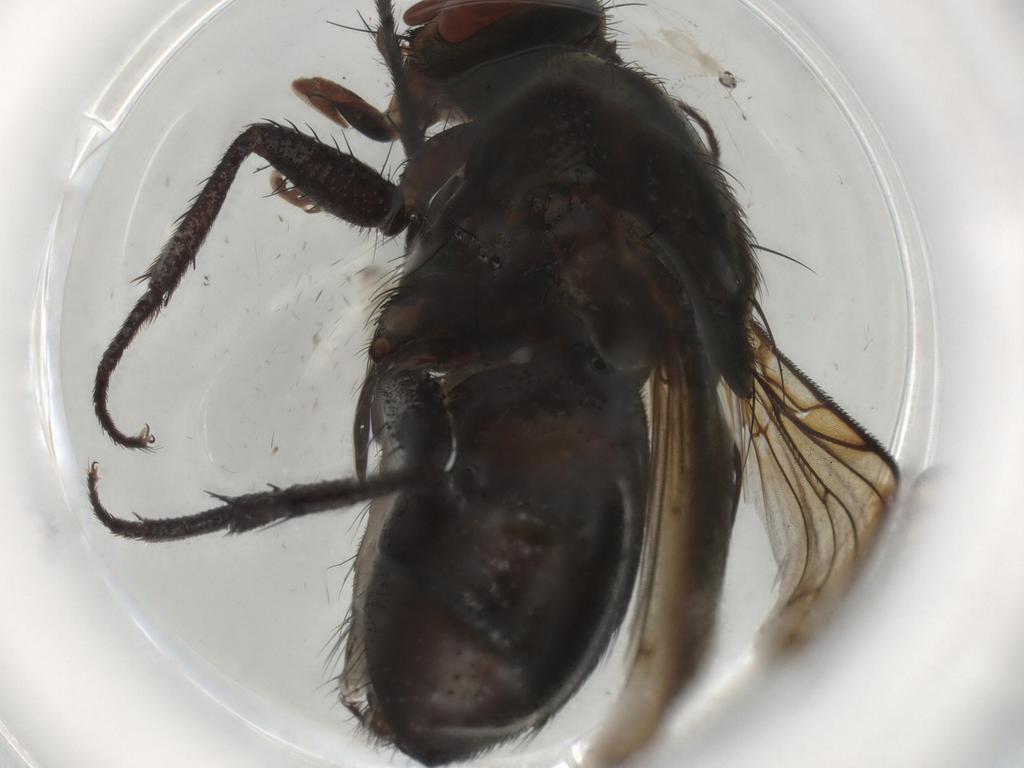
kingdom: Animalia
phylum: Arthropoda
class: Insecta
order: Diptera
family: Sarcophagidae
